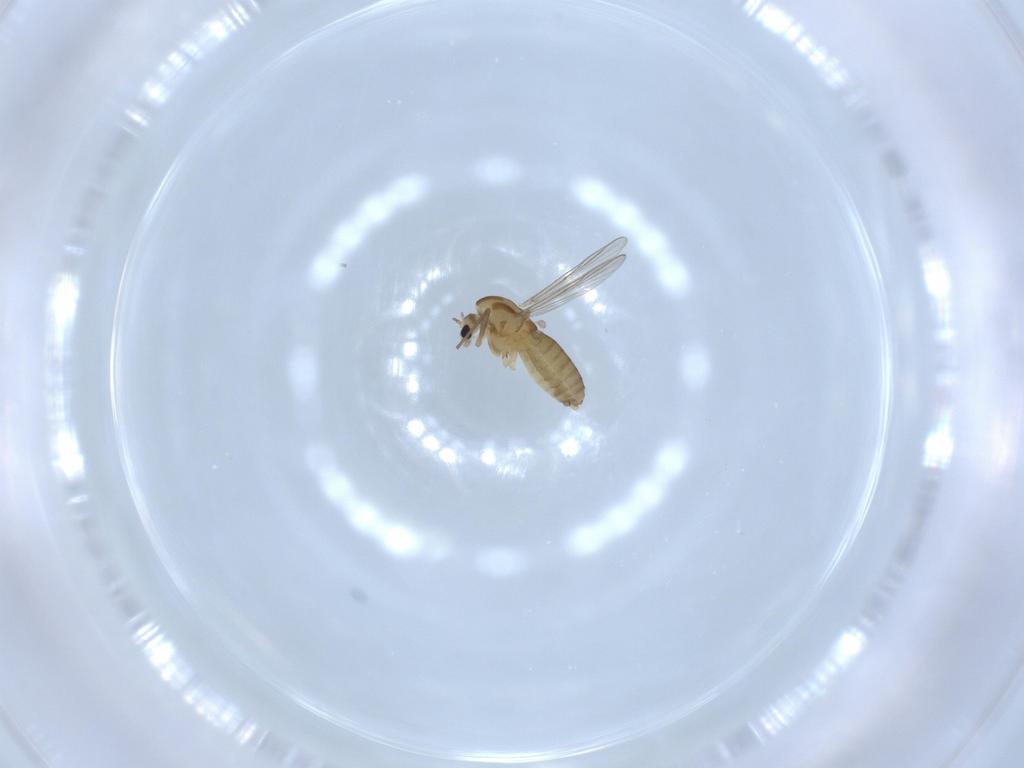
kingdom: Animalia
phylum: Arthropoda
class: Insecta
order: Diptera
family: Chironomidae
